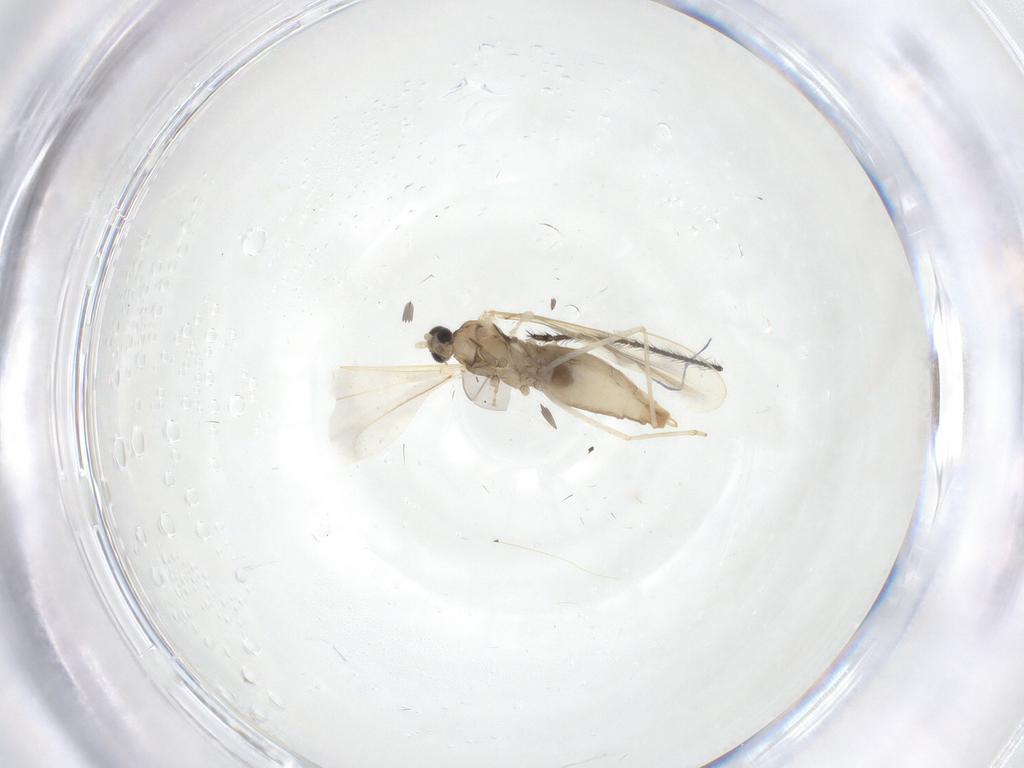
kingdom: Animalia
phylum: Arthropoda
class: Insecta
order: Diptera
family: Cecidomyiidae
